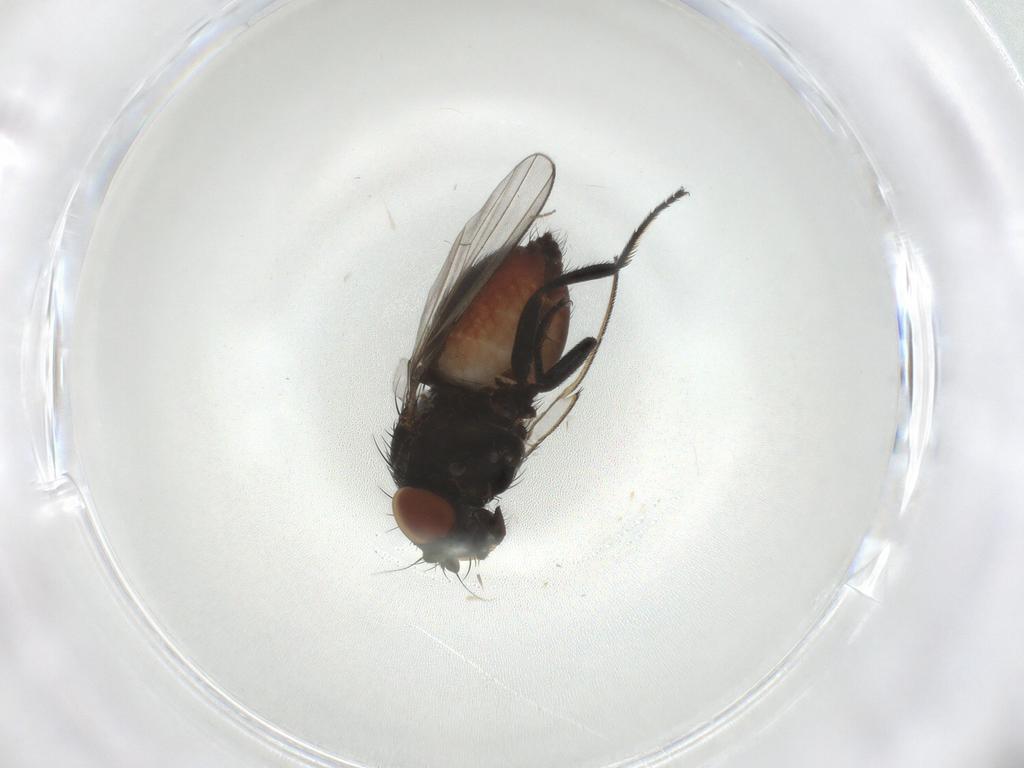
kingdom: Animalia
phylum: Arthropoda
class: Insecta
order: Diptera
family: Milichiidae
